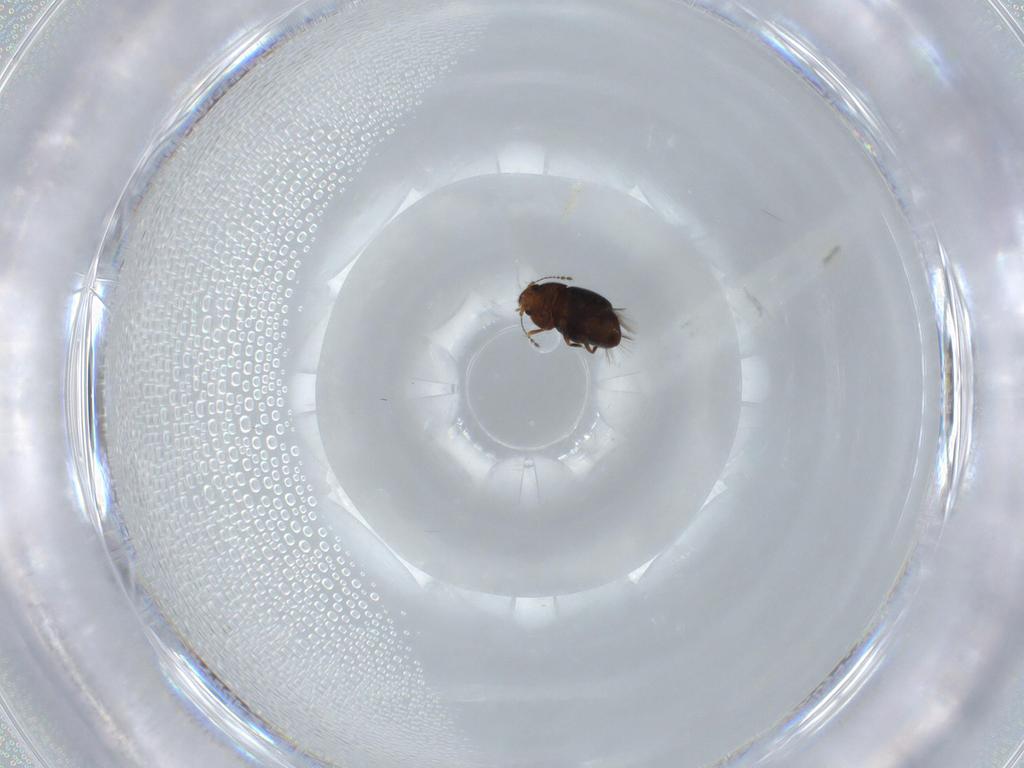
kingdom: Animalia
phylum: Arthropoda
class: Insecta
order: Coleoptera
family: Ptiliidae
